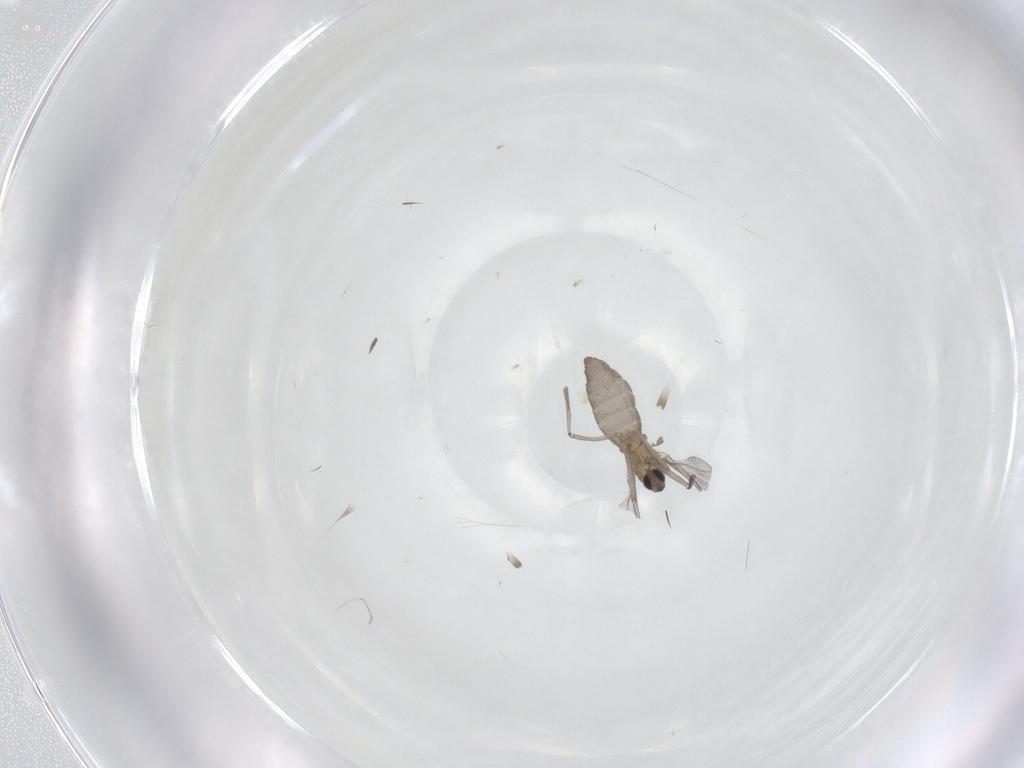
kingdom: Animalia
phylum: Arthropoda
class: Insecta
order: Diptera
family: Cecidomyiidae
